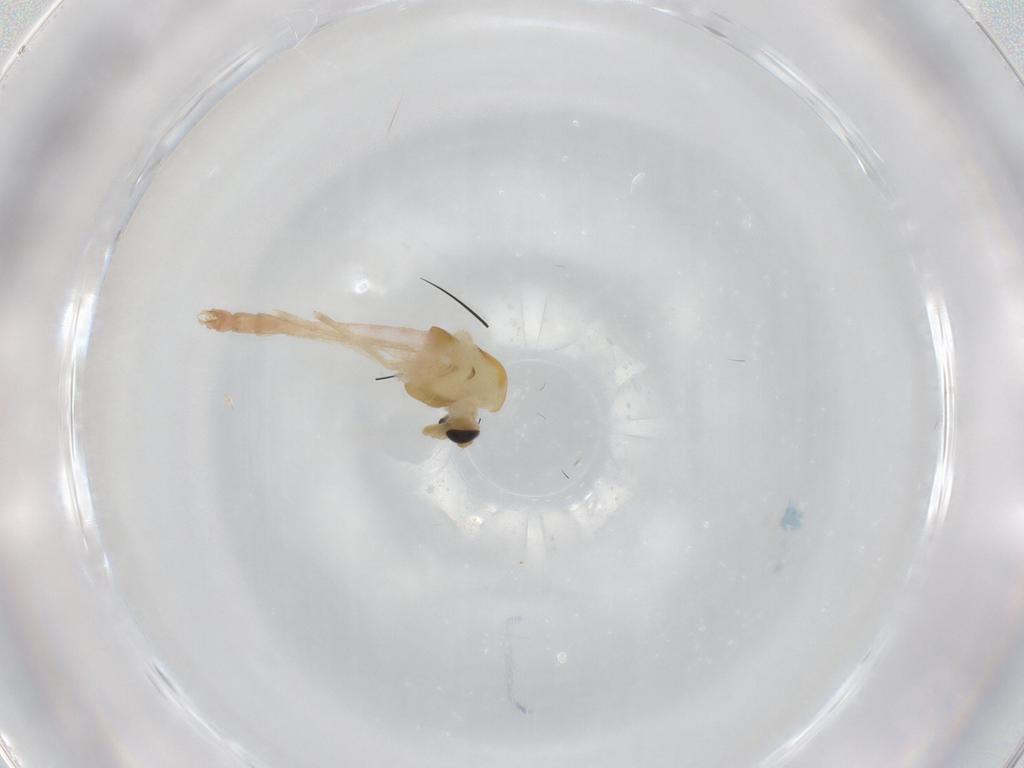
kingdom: Animalia
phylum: Arthropoda
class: Insecta
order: Diptera
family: Chironomidae
